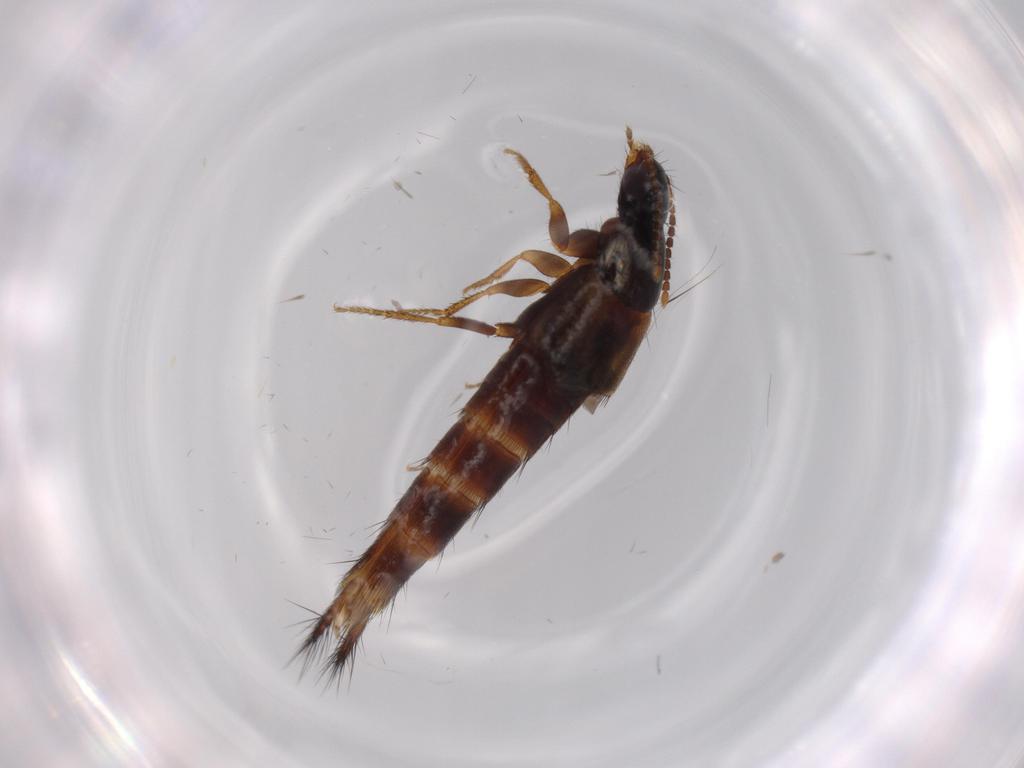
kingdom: Animalia
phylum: Arthropoda
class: Insecta
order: Coleoptera
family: Staphylinidae
